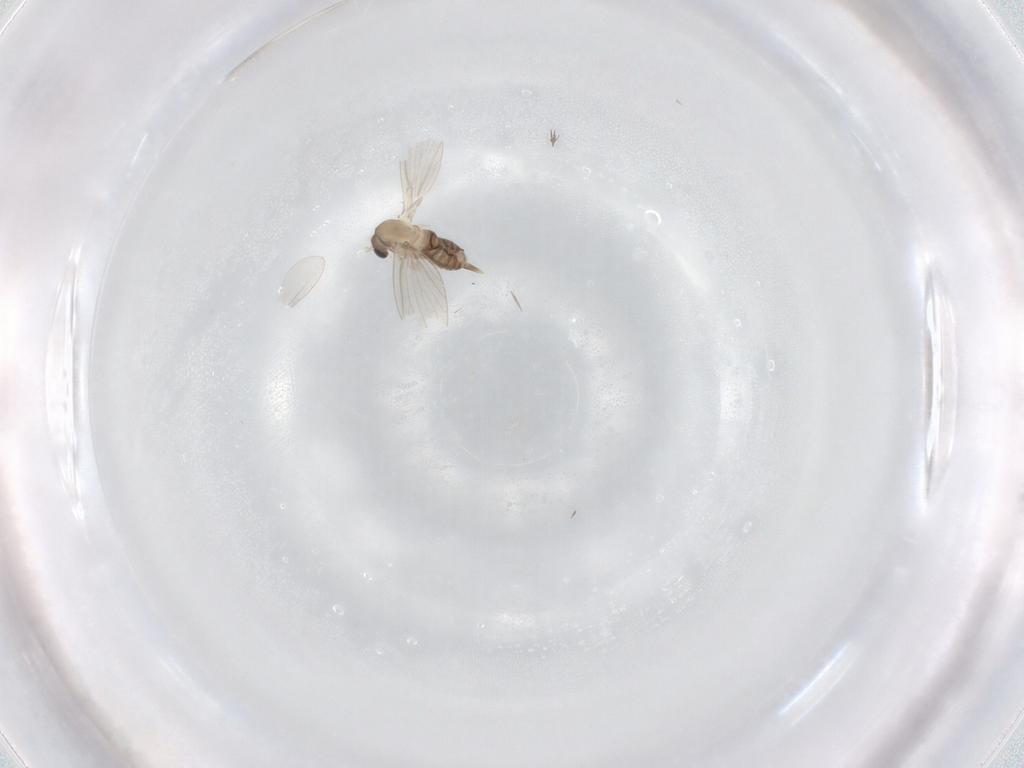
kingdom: Animalia
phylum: Arthropoda
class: Insecta
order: Diptera
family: Cecidomyiidae
